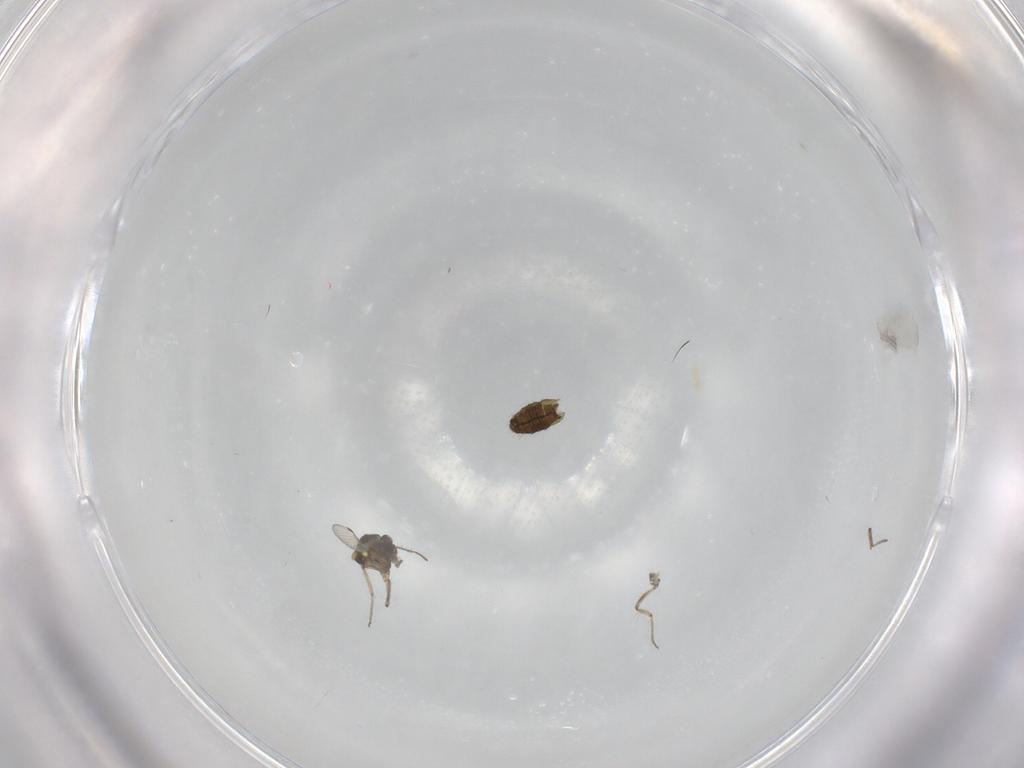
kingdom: Animalia
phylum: Arthropoda
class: Insecta
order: Diptera
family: Ceratopogonidae
